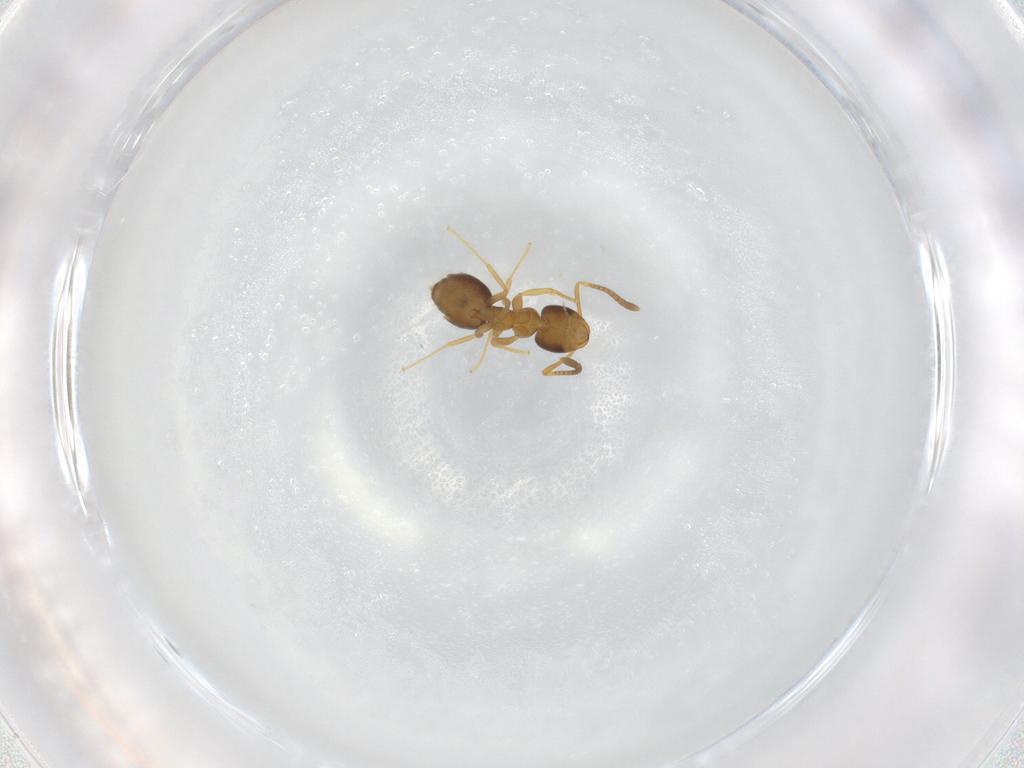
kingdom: Animalia
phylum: Arthropoda
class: Insecta
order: Hymenoptera
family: Formicidae
